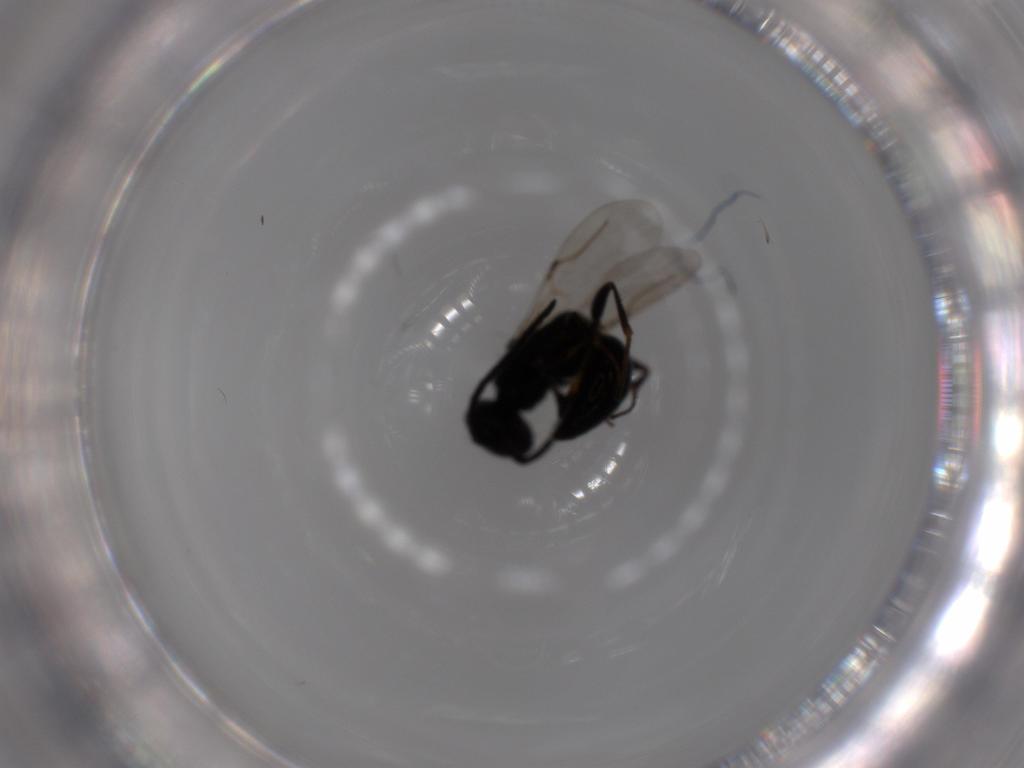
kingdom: Animalia
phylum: Arthropoda
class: Insecta
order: Hymenoptera
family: Bethylidae
